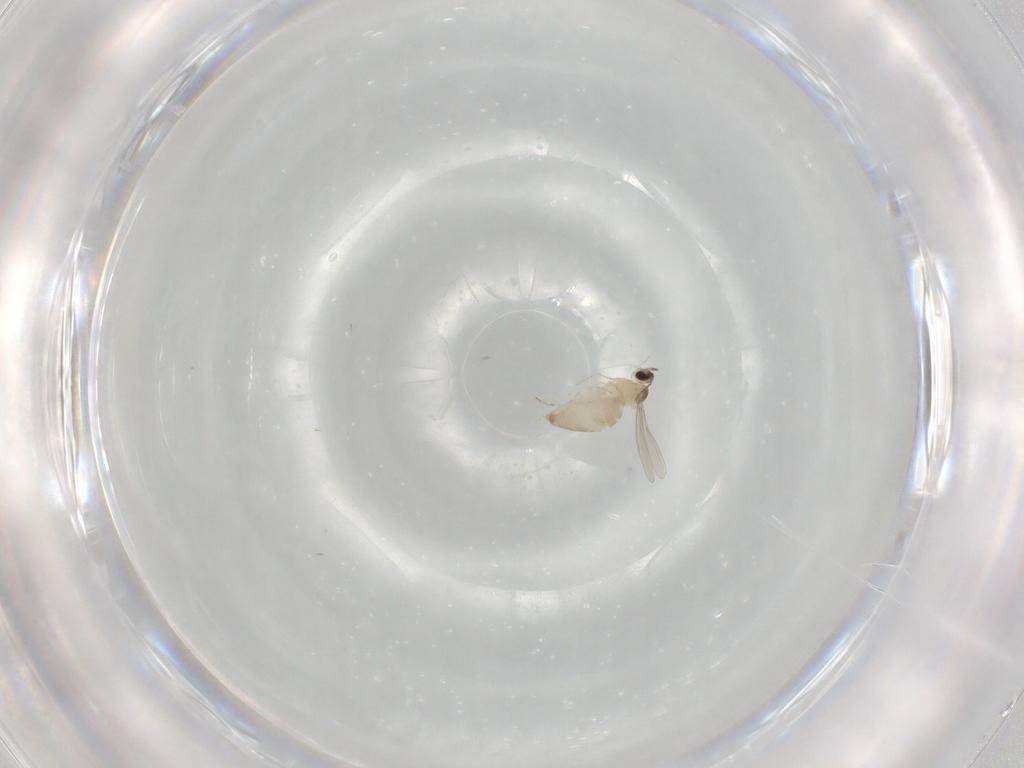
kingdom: Animalia
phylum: Arthropoda
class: Insecta
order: Diptera
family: Cecidomyiidae
